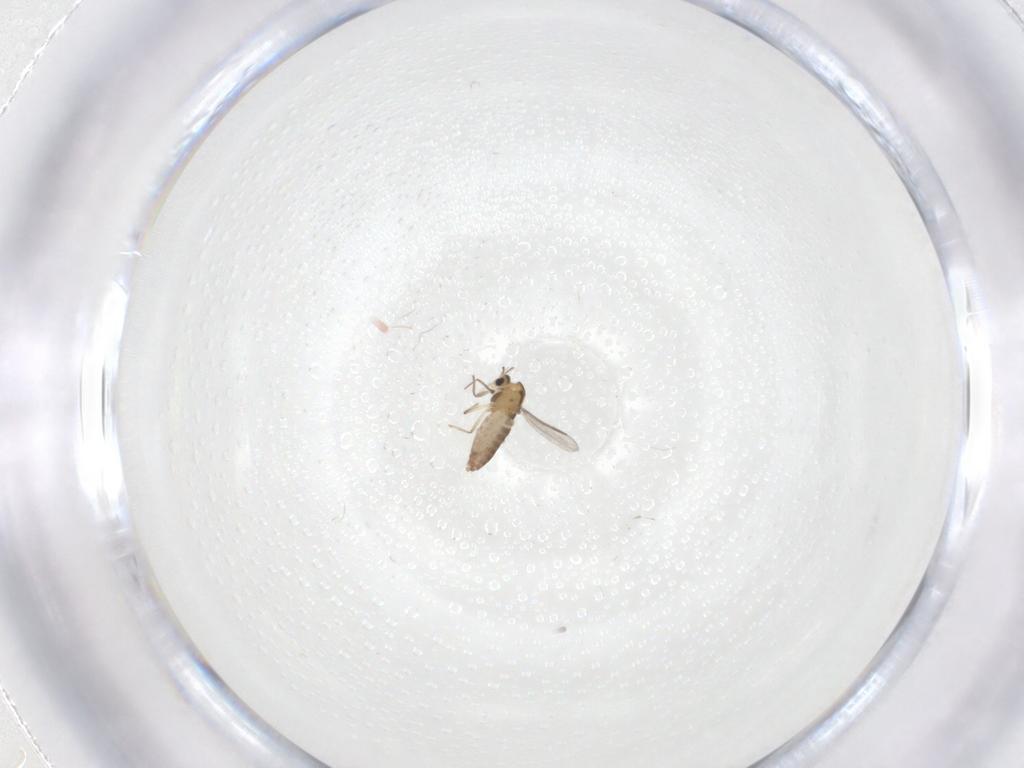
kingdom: Animalia
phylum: Arthropoda
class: Insecta
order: Diptera
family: Chironomidae
